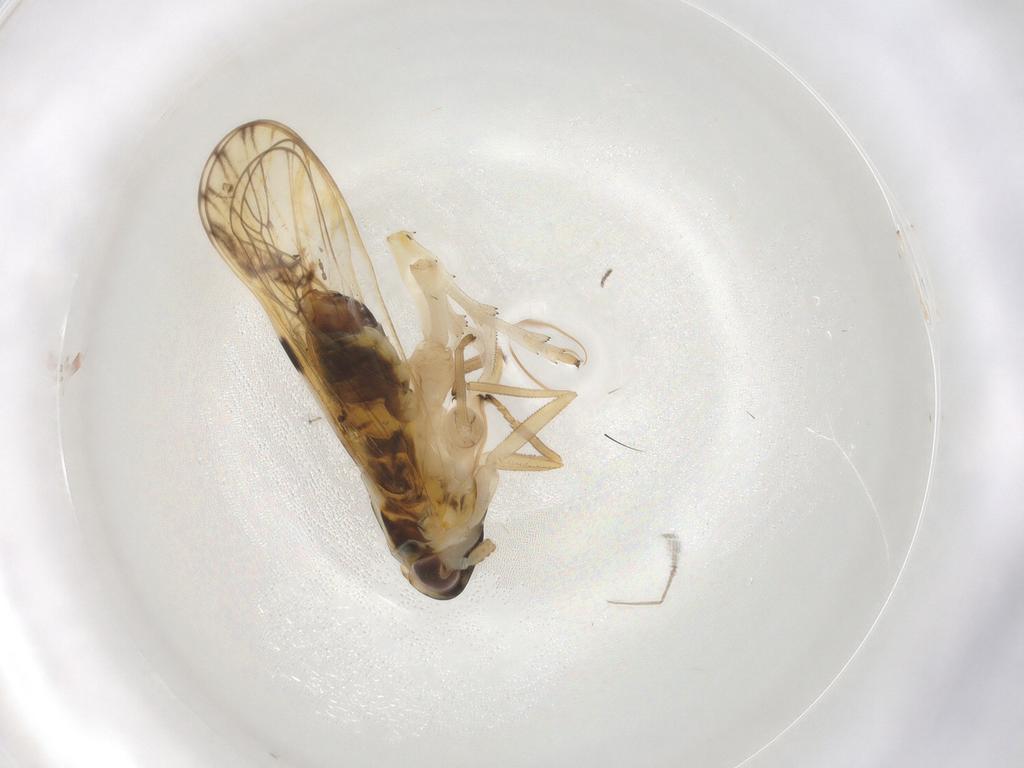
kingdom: Animalia
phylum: Arthropoda
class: Insecta
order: Hemiptera
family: Delphacidae
